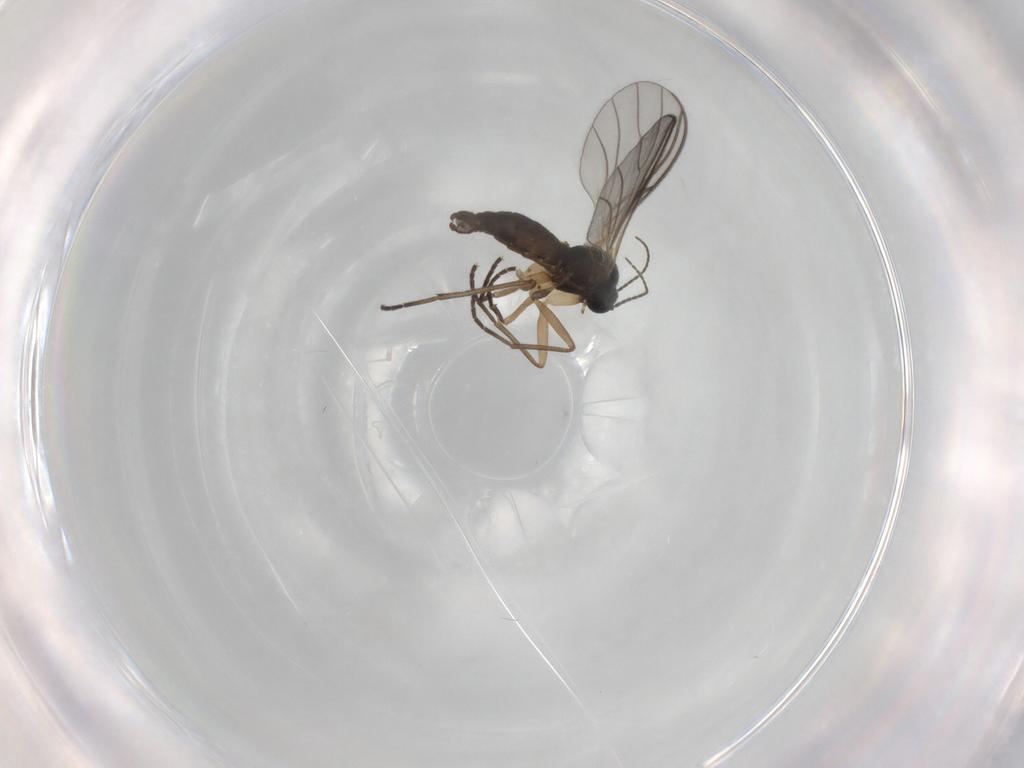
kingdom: Animalia
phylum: Arthropoda
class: Insecta
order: Diptera
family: Sciaridae
